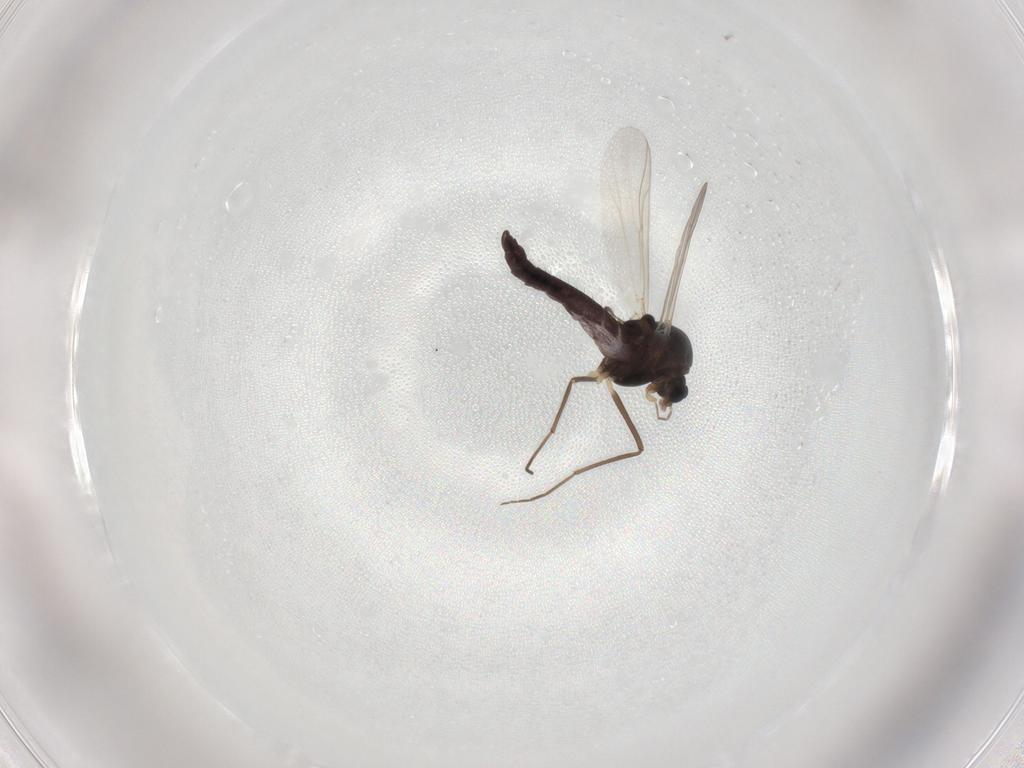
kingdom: Animalia
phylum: Arthropoda
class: Insecta
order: Diptera
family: Chironomidae
